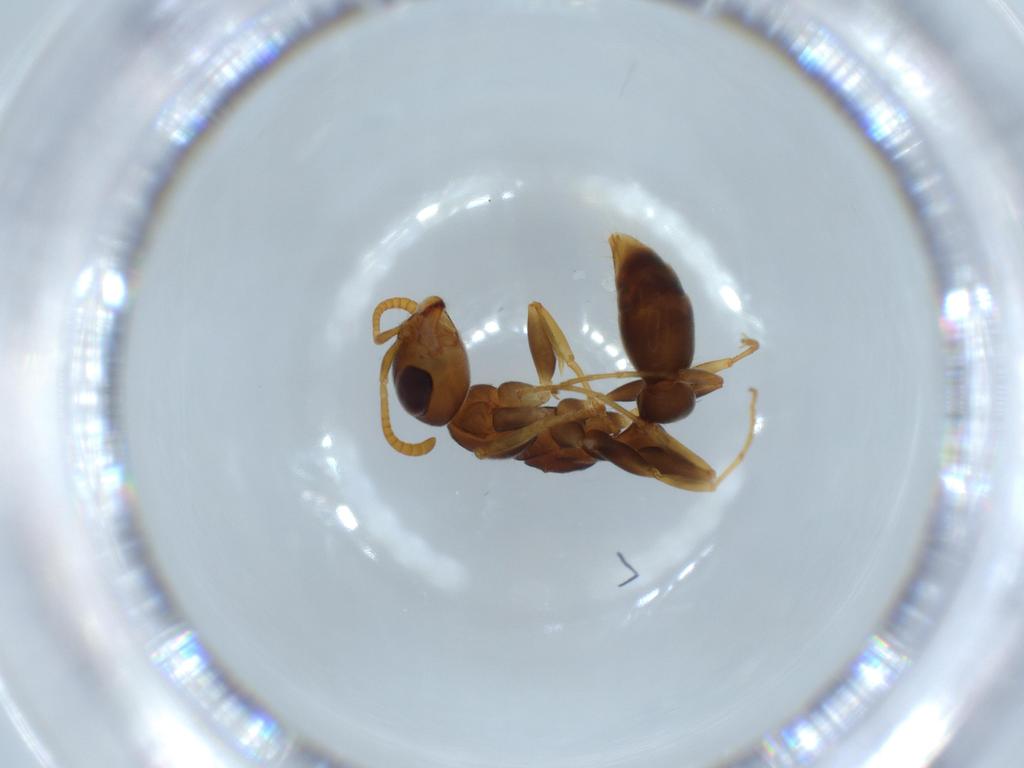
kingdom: Animalia
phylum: Arthropoda
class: Insecta
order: Hymenoptera
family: Formicidae
